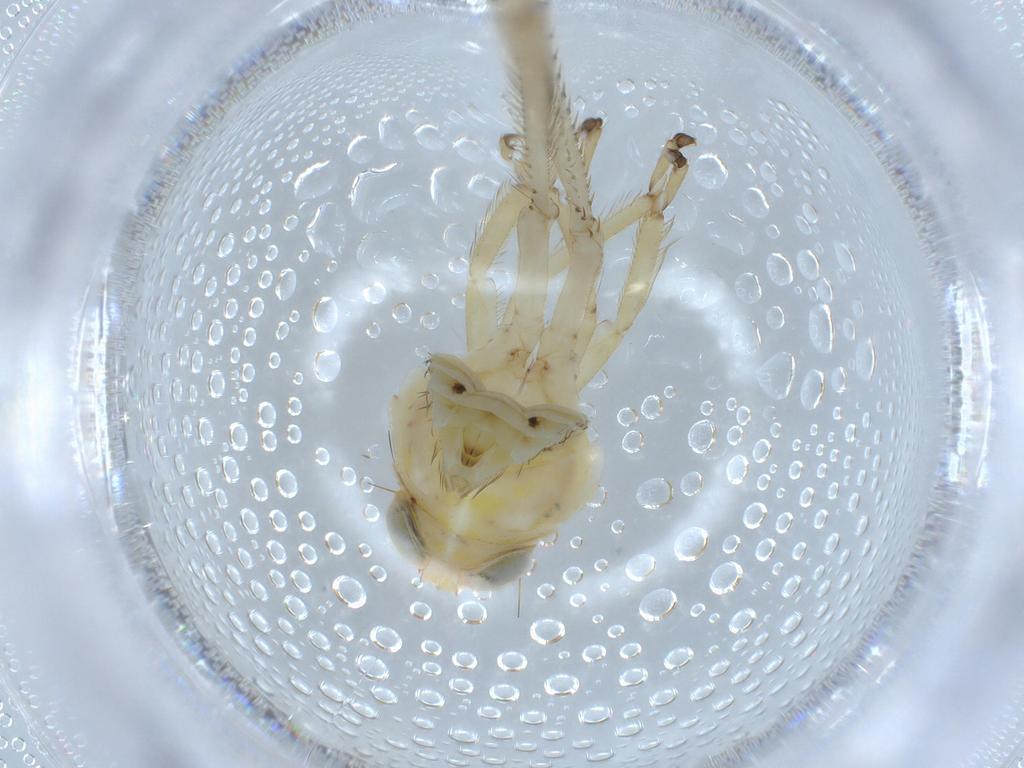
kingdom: Animalia
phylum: Arthropoda
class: Insecta
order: Hemiptera
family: Cicadellidae
